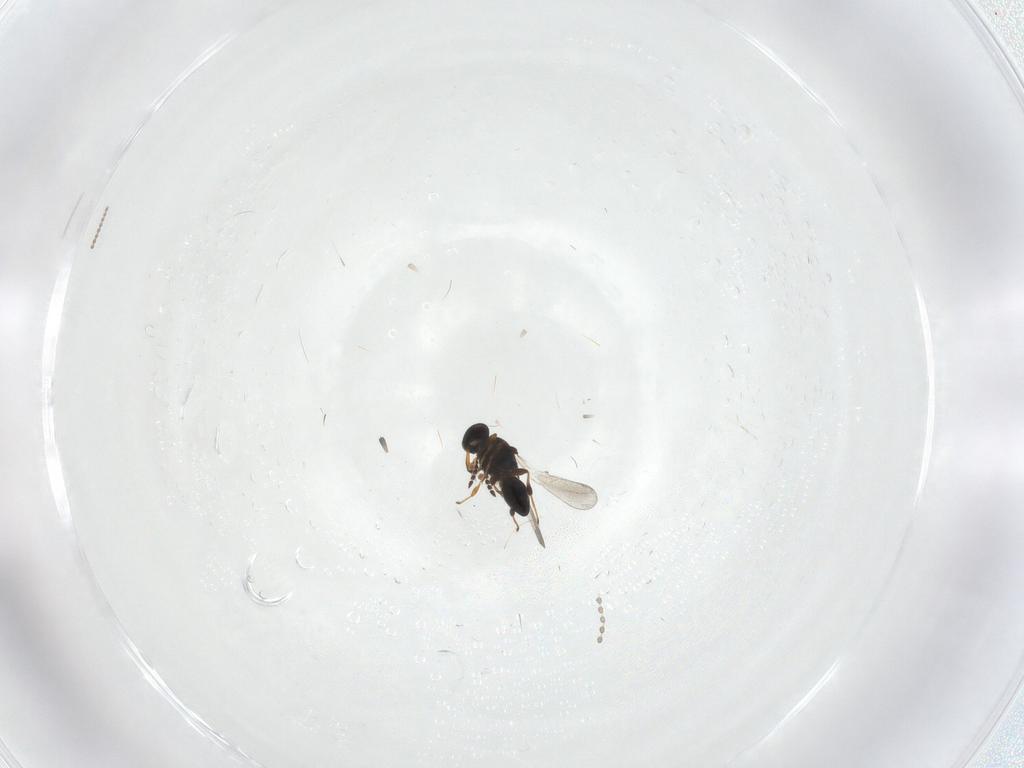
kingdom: Animalia
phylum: Arthropoda
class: Insecta
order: Hymenoptera
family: Platygastridae
